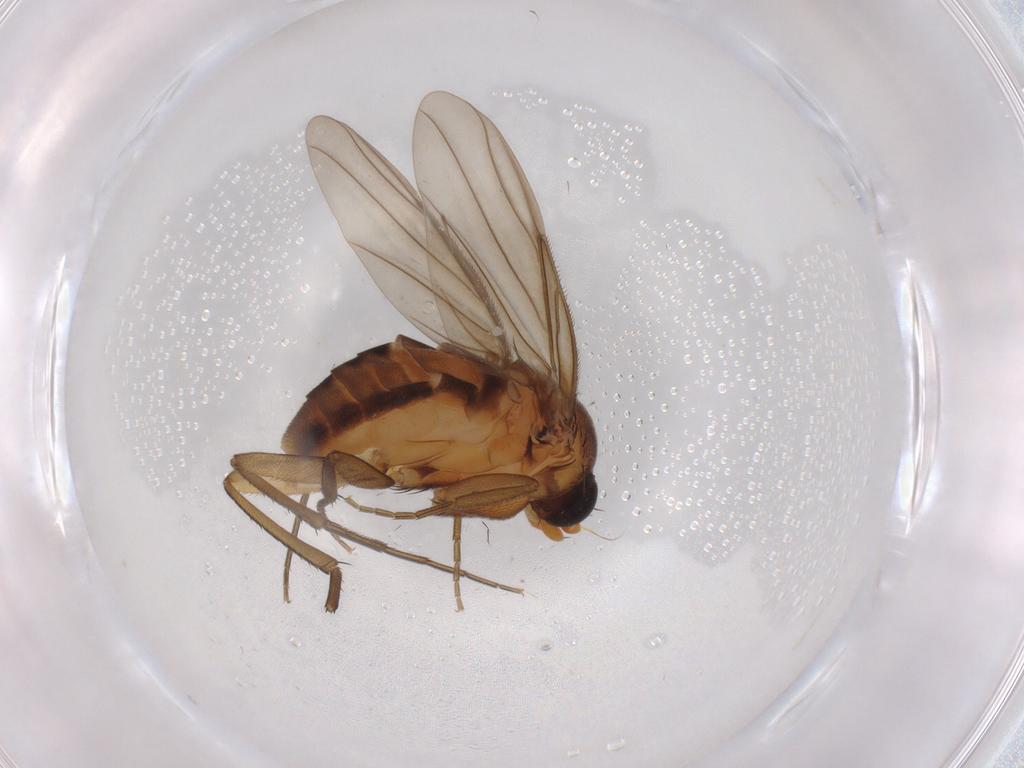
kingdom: Animalia
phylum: Arthropoda
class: Insecta
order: Diptera
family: Phoridae
